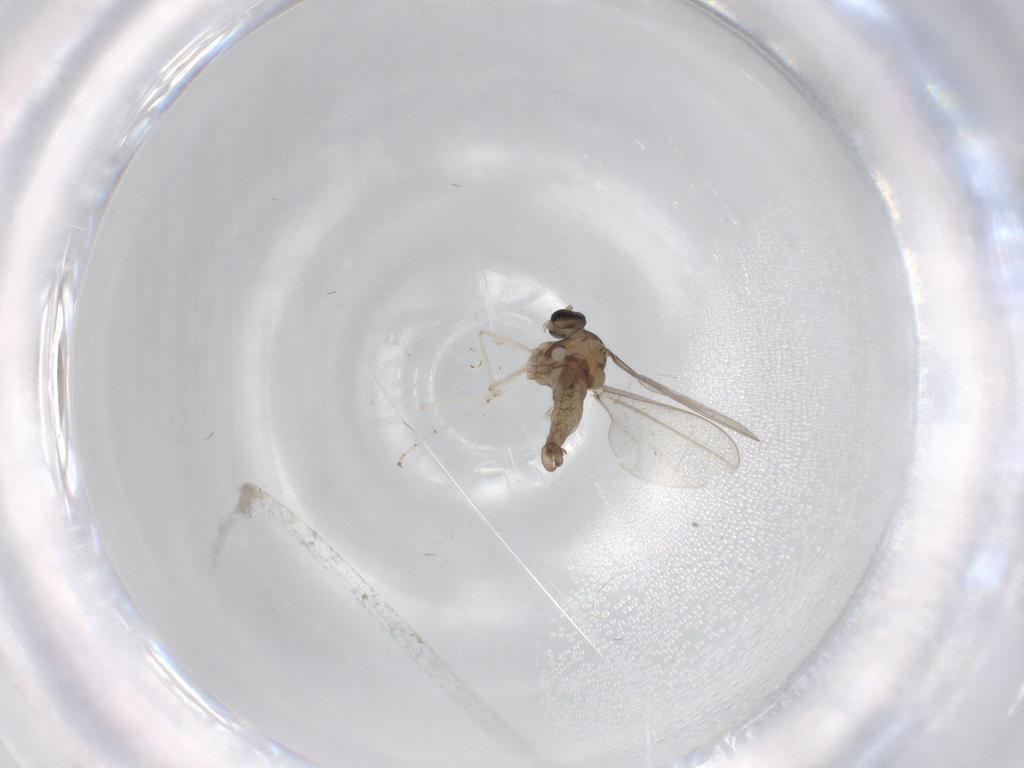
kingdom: Animalia
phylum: Arthropoda
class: Insecta
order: Diptera
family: Cecidomyiidae
